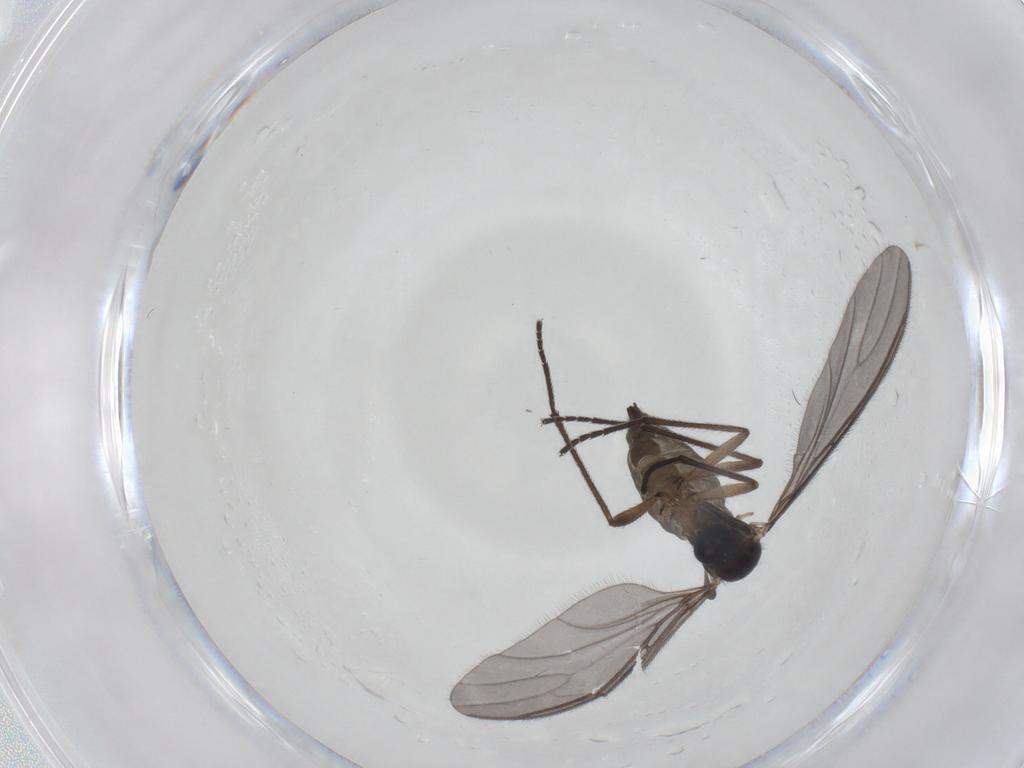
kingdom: Animalia
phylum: Arthropoda
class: Insecta
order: Diptera
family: Sciaridae
